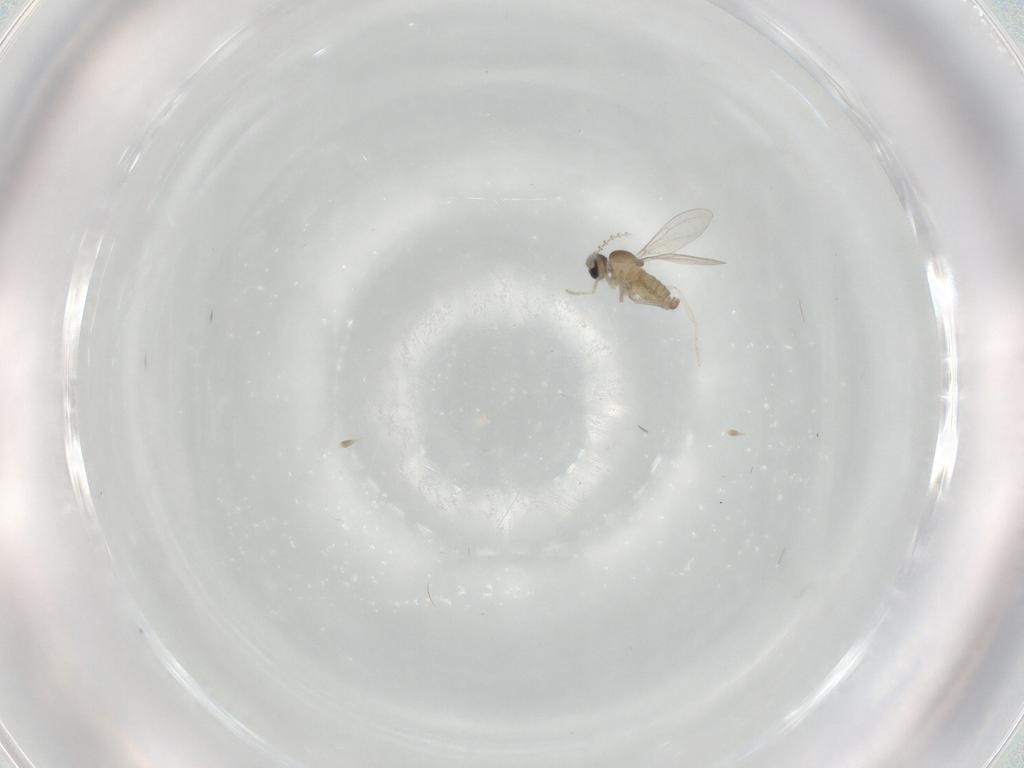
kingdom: Animalia
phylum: Arthropoda
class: Insecta
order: Diptera
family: Cecidomyiidae
